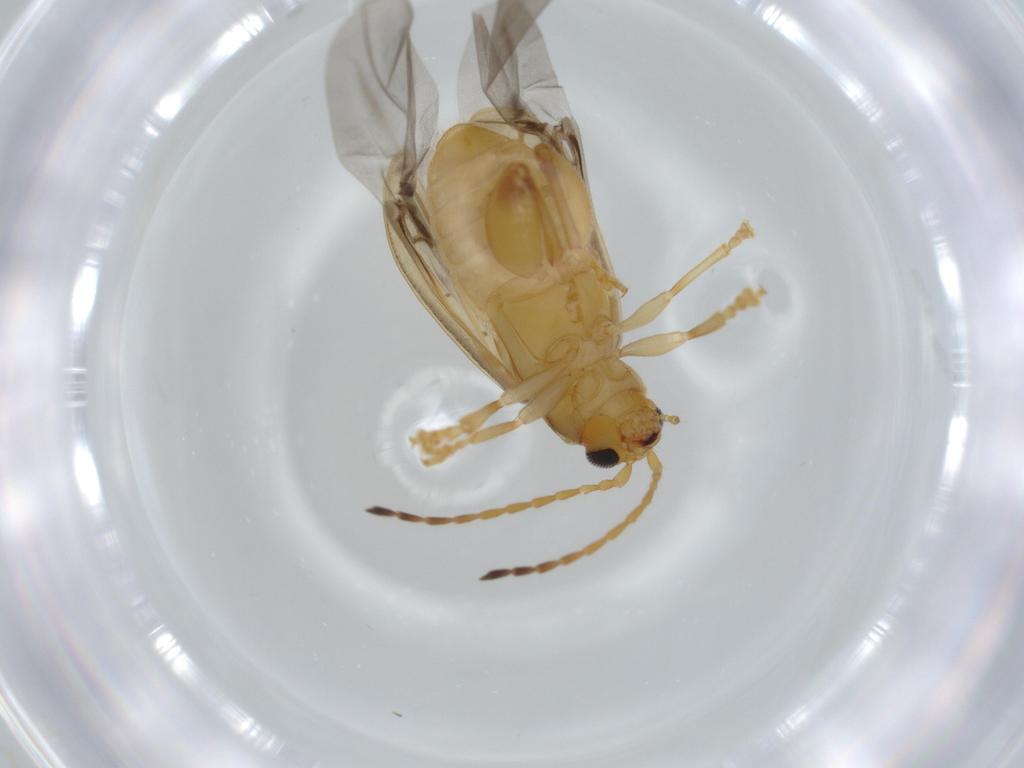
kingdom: Animalia
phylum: Arthropoda
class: Insecta
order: Coleoptera
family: Chrysomelidae
